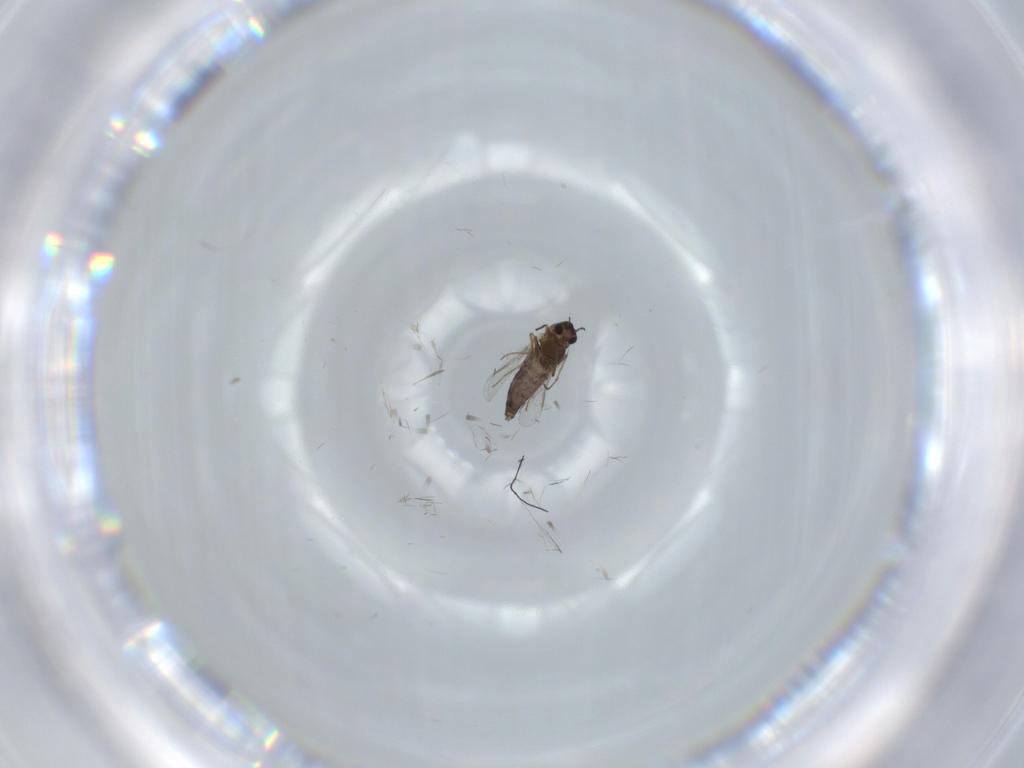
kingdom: Animalia
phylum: Arthropoda
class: Insecta
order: Diptera
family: Chironomidae
